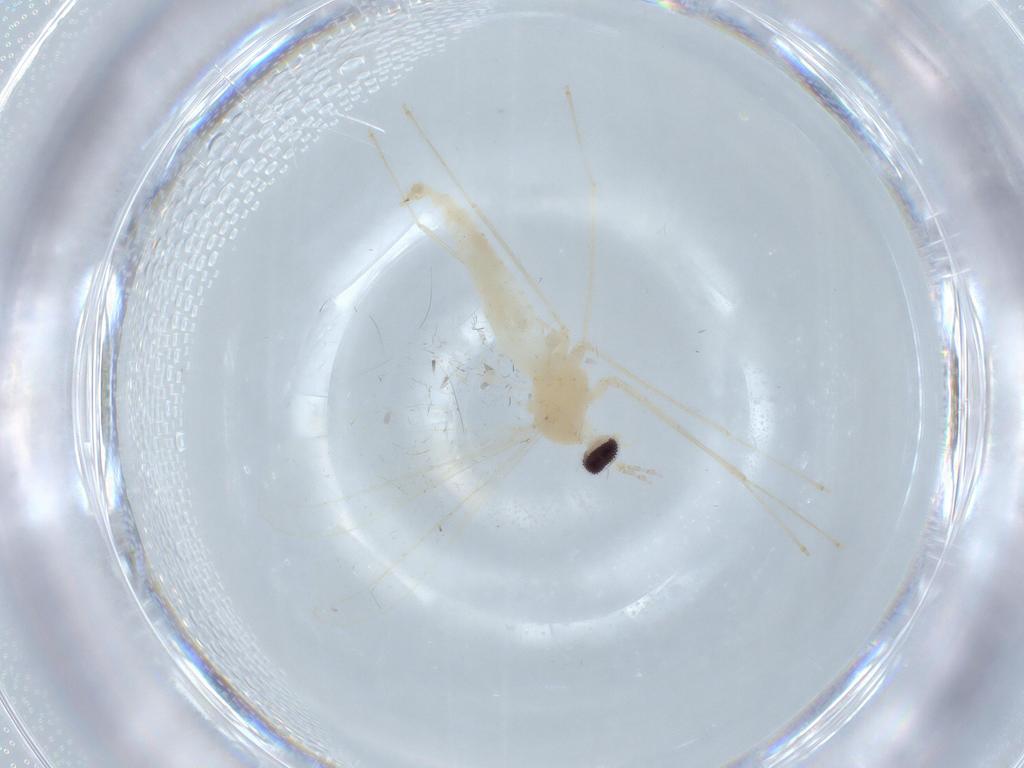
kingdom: Animalia
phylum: Arthropoda
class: Insecta
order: Diptera
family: Cecidomyiidae
